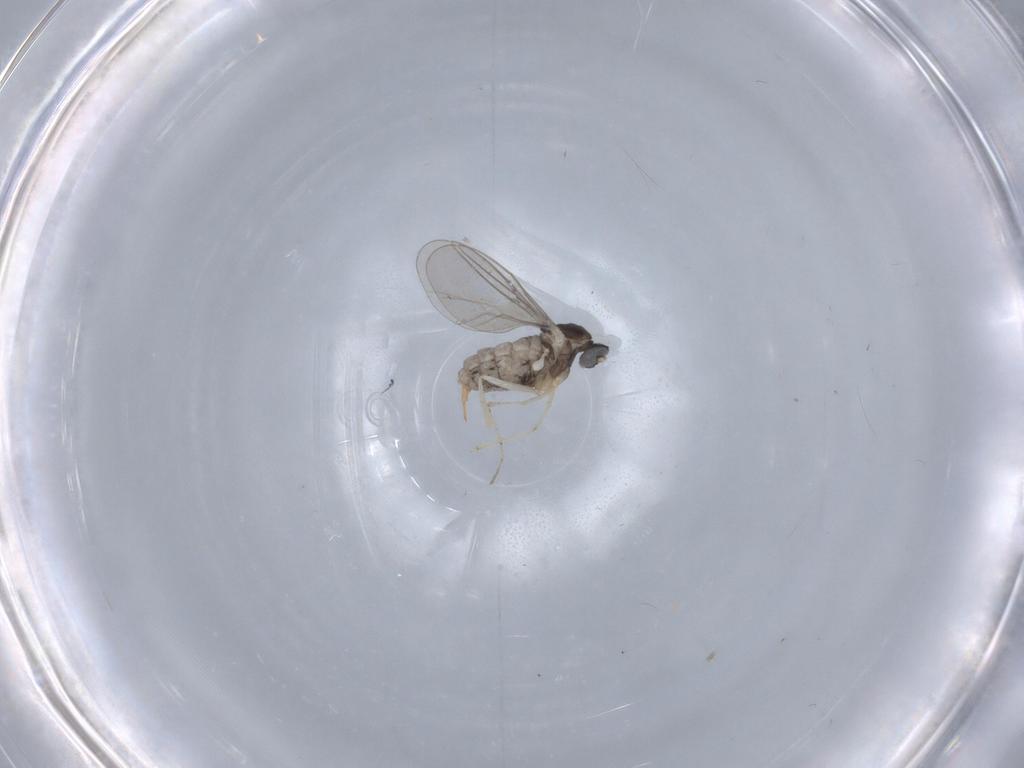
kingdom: Animalia
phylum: Arthropoda
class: Insecta
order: Diptera
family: Cecidomyiidae
